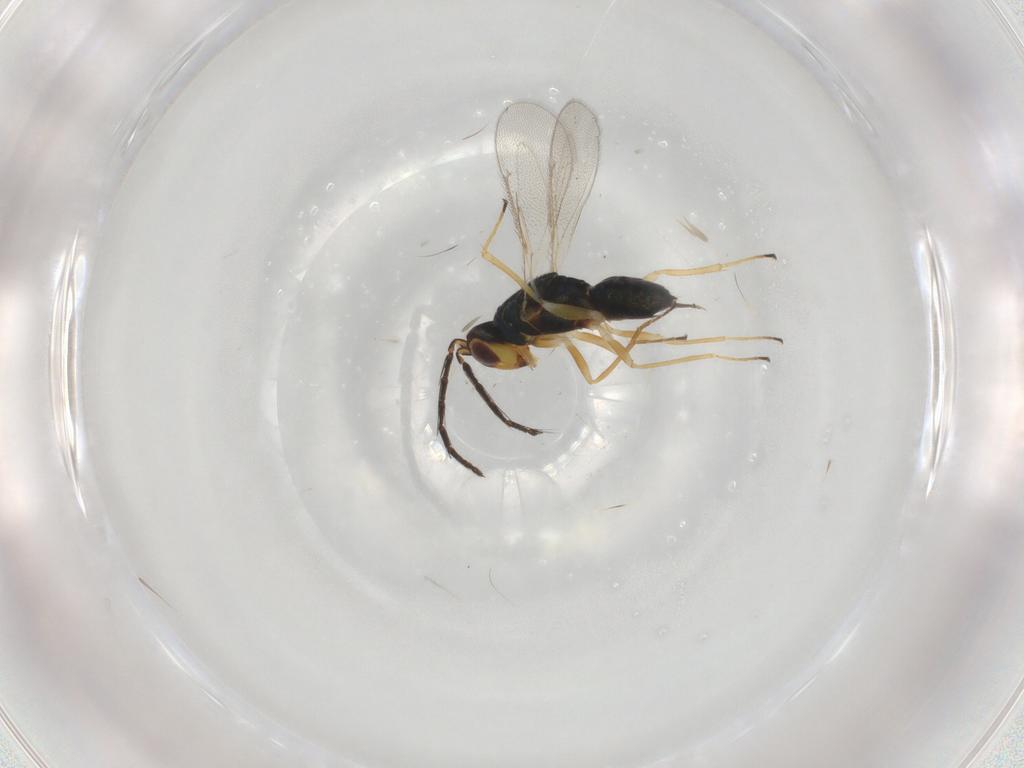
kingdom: Animalia
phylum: Arthropoda
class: Insecta
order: Hymenoptera
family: Eulophidae
